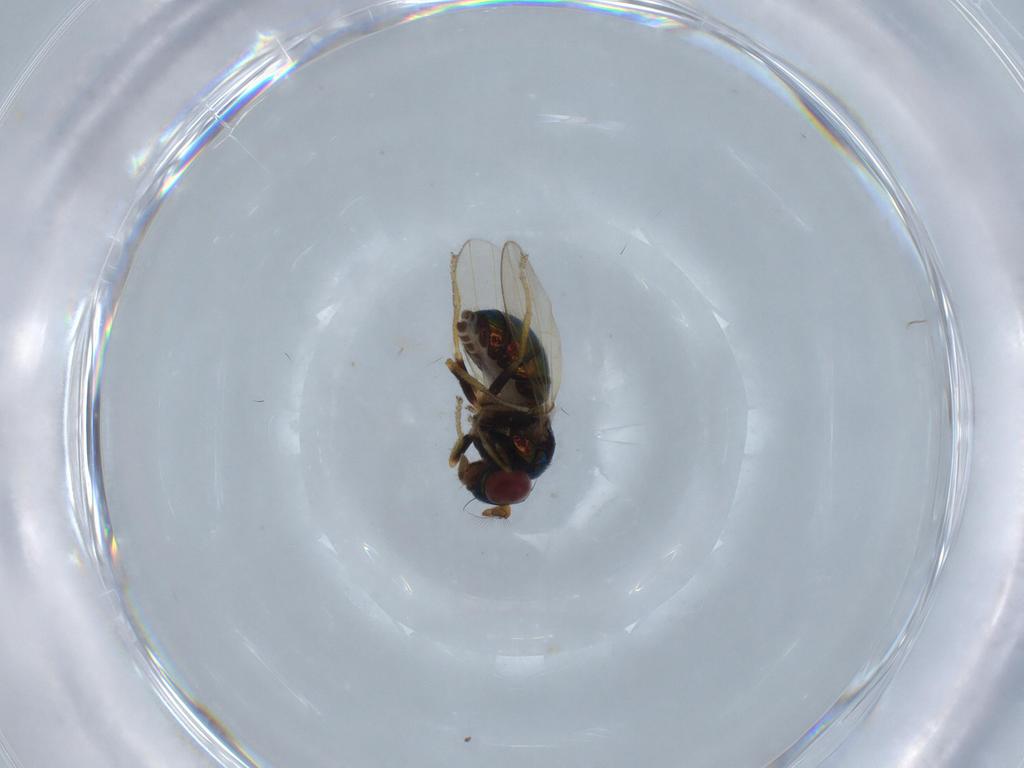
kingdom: Animalia
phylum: Arthropoda
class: Insecta
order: Diptera
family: Ephydridae
